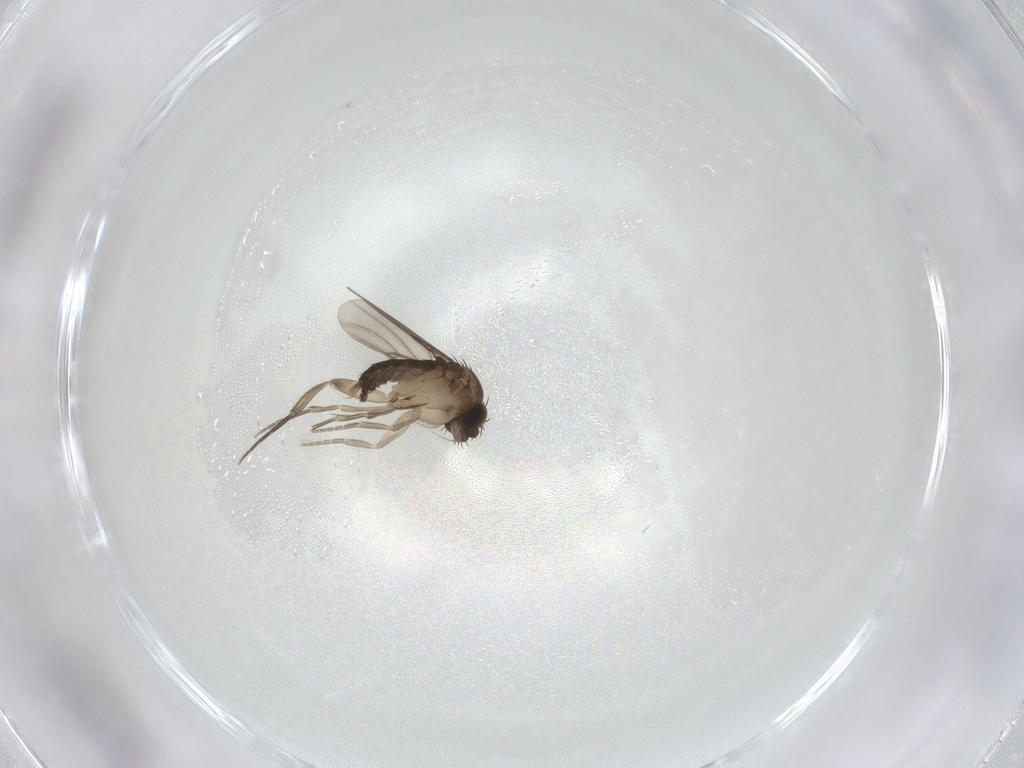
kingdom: Animalia
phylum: Arthropoda
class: Insecta
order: Diptera
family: Phoridae
